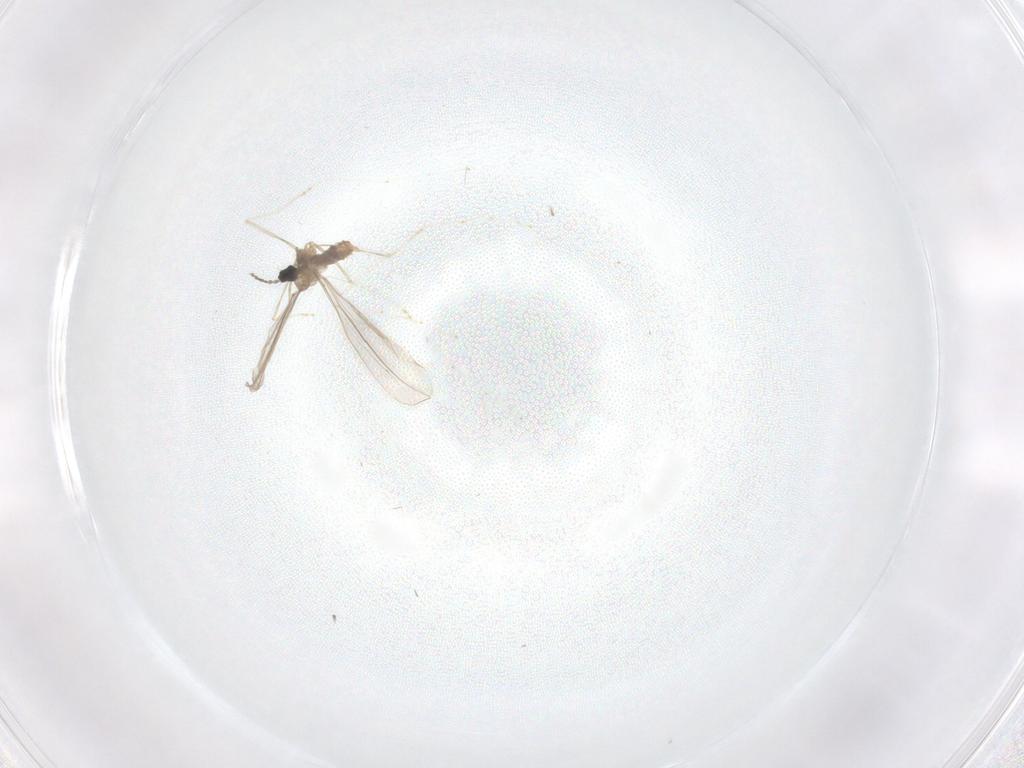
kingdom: Animalia
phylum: Arthropoda
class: Insecta
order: Diptera
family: Cecidomyiidae
